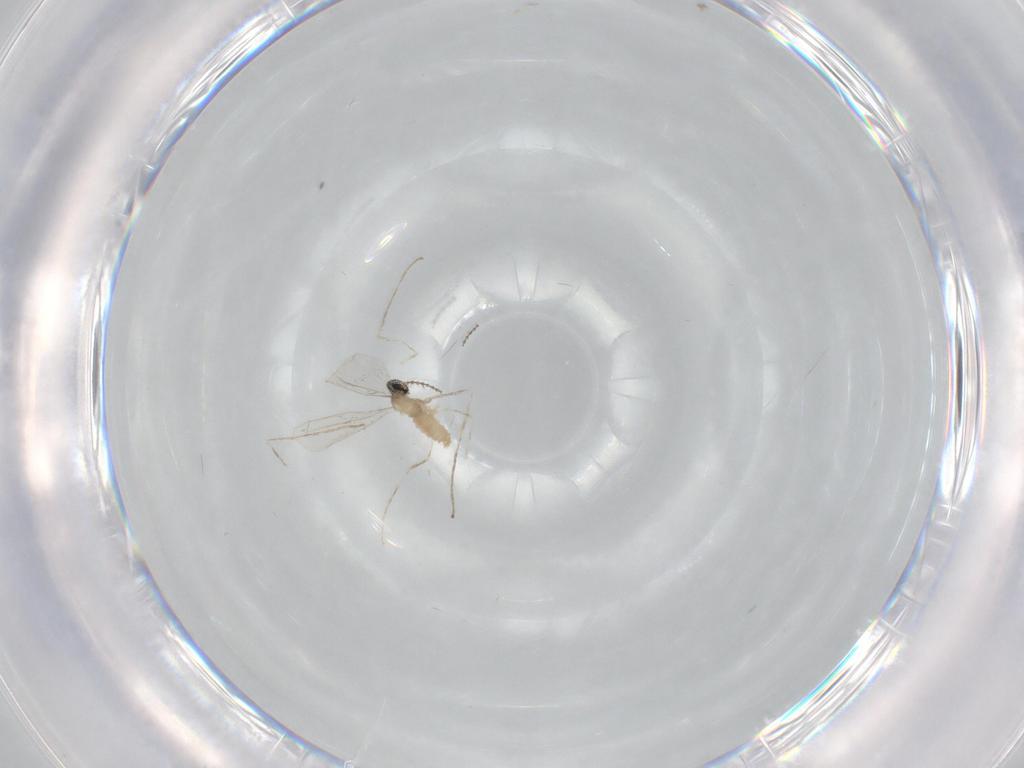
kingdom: Animalia
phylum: Arthropoda
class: Insecta
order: Diptera
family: Cecidomyiidae
